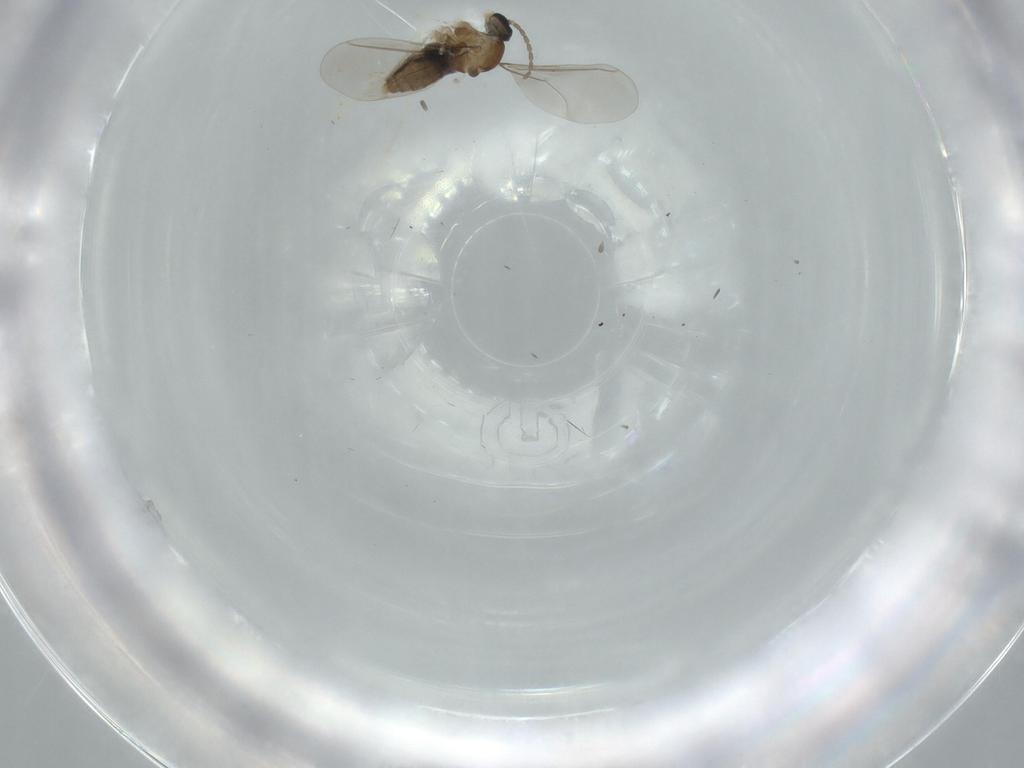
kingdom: Animalia
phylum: Arthropoda
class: Insecta
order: Diptera
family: Cecidomyiidae
